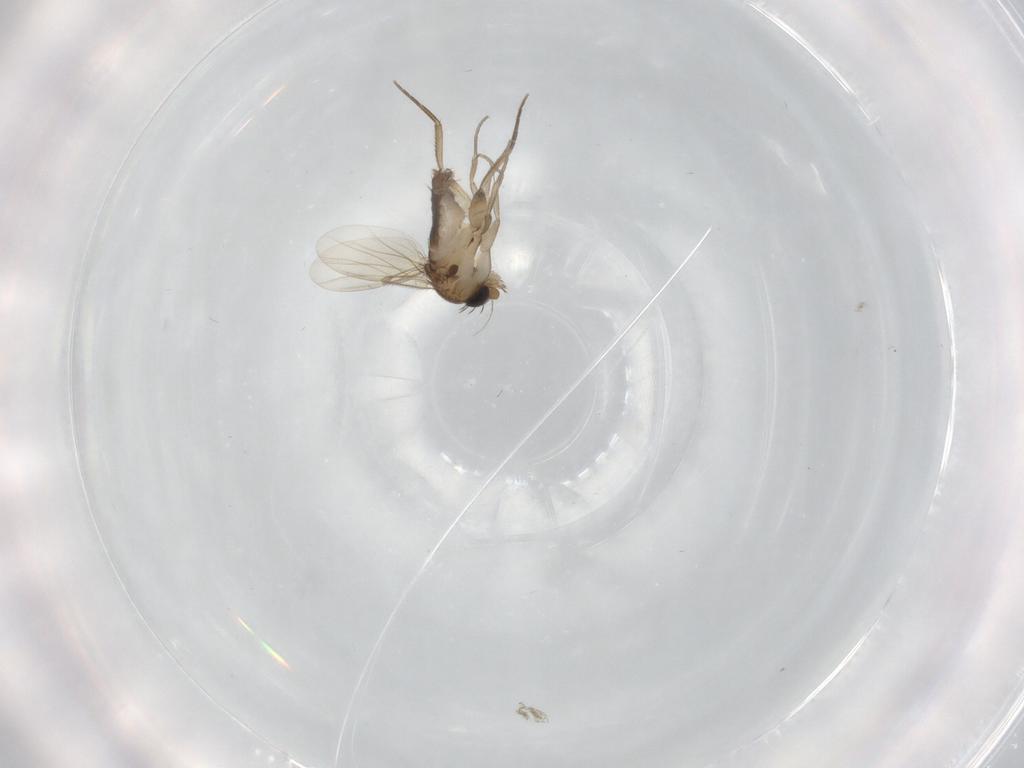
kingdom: Animalia
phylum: Arthropoda
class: Insecta
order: Diptera
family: Phoridae
